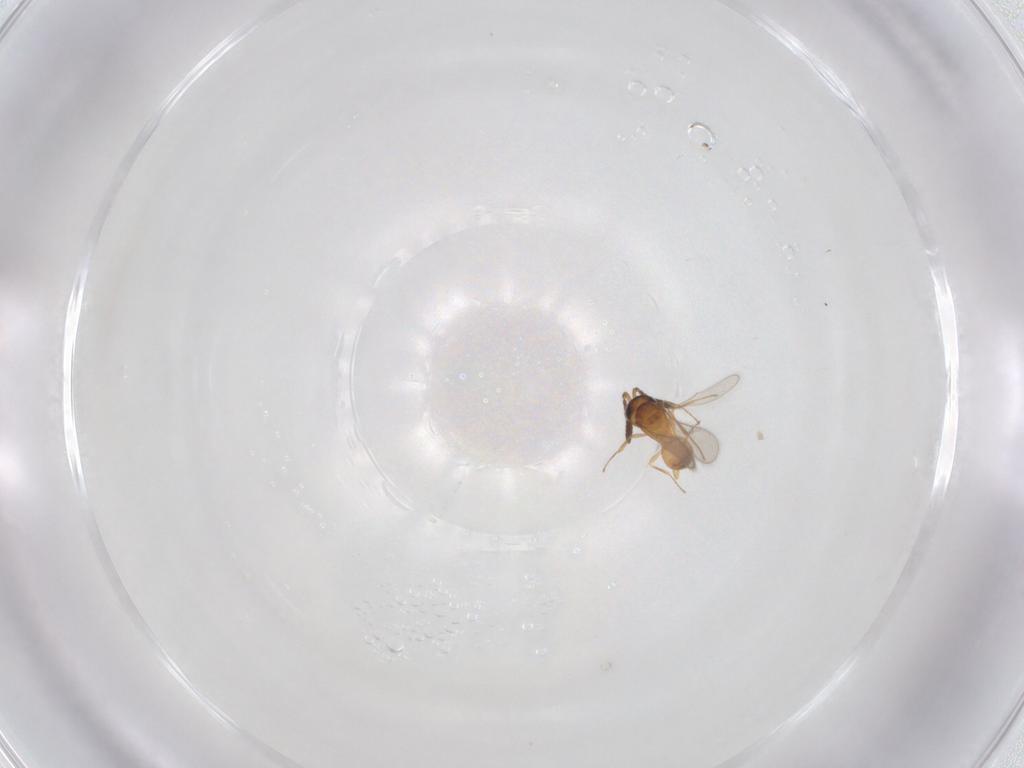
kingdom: Animalia
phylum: Arthropoda
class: Insecta
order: Hymenoptera
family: Scelionidae
